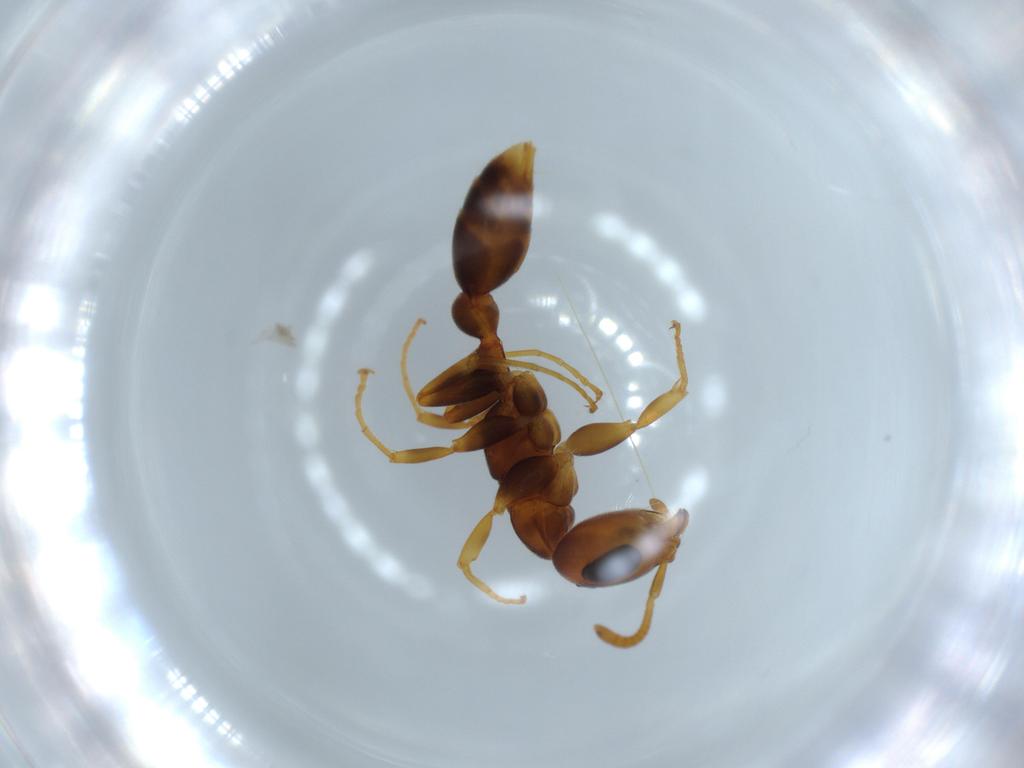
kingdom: Animalia
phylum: Arthropoda
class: Insecta
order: Hymenoptera
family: Formicidae
